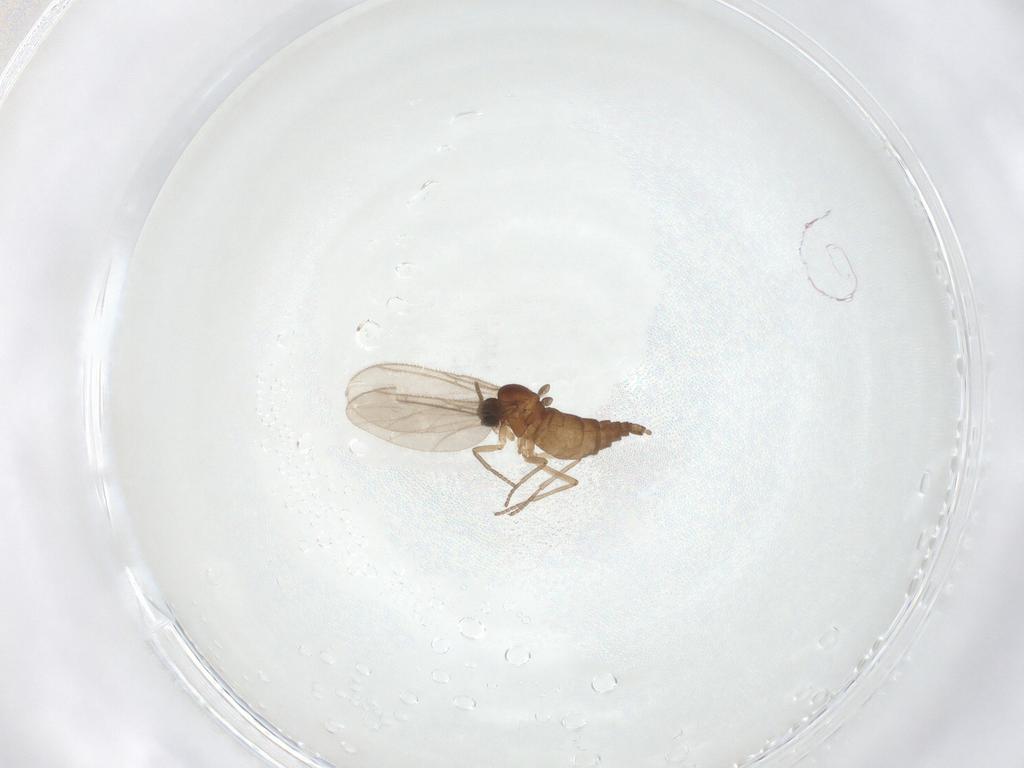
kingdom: Animalia
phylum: Arthropoda
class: Insecta
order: Diptera
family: Sciaridae
